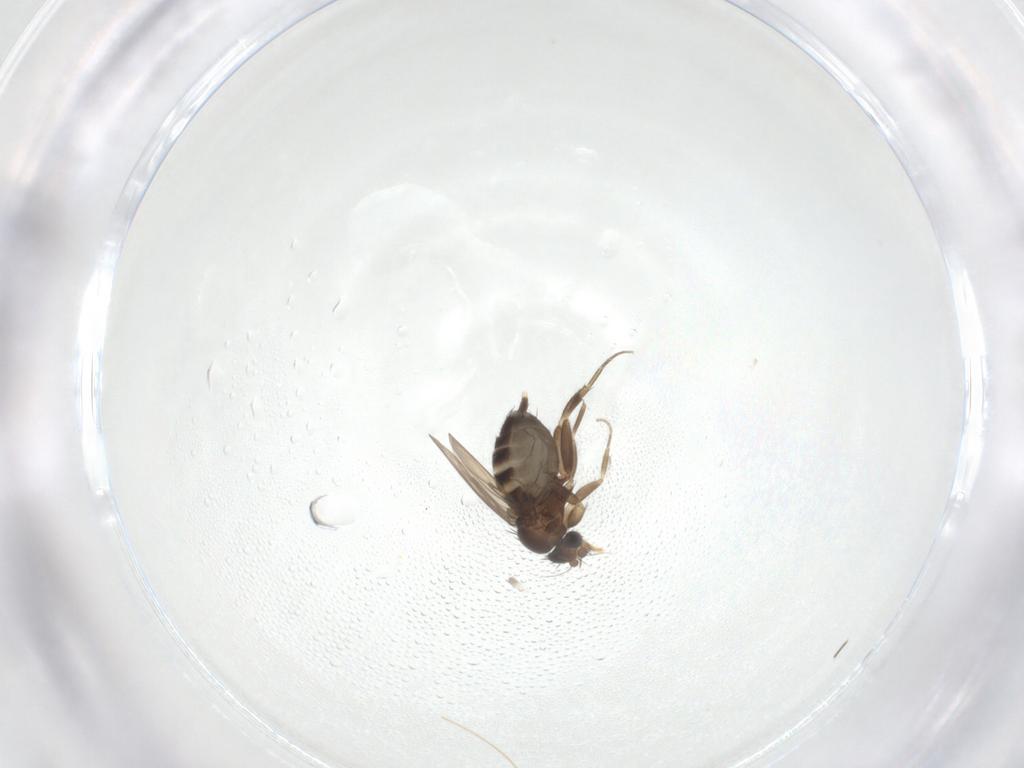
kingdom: Animalia
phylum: Arthropoda
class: Insecta
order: Diptera
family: Phoridae
